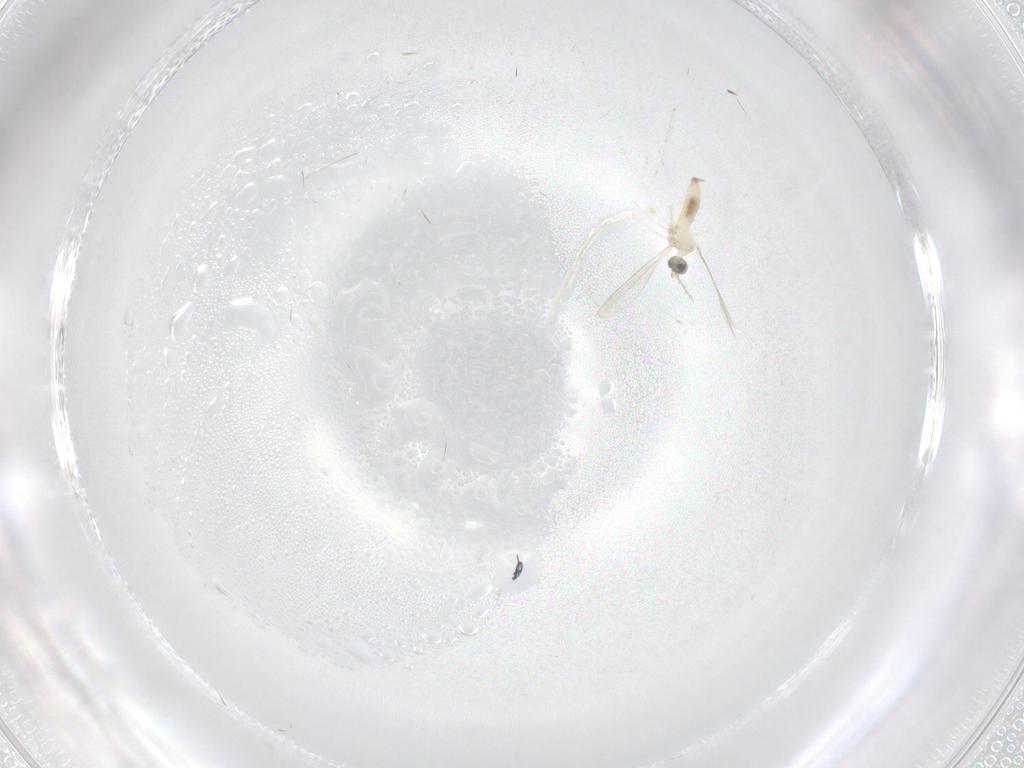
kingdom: Animalia
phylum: Arthropoda
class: Insecta
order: Diptera
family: Cecidomyiidae
